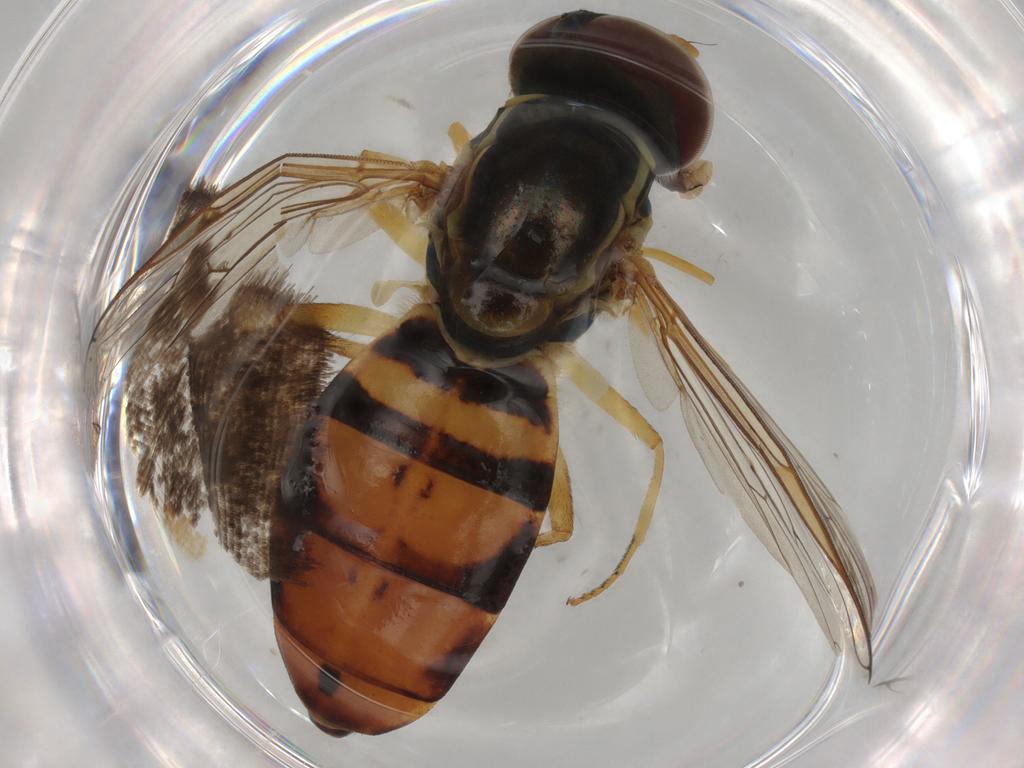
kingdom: Animalia
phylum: Arthropoda
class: Insecta
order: Diptera
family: Syrphidae
